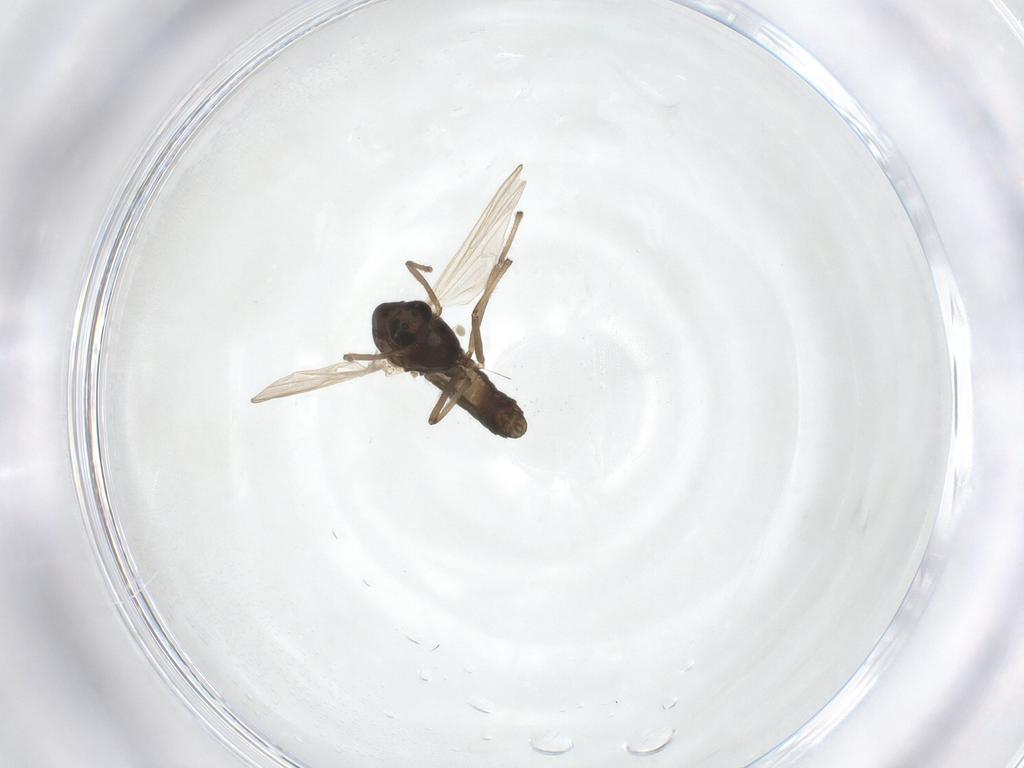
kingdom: Animalia
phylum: Arthropoda
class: Insecta
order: Diptera
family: Chironomidae
